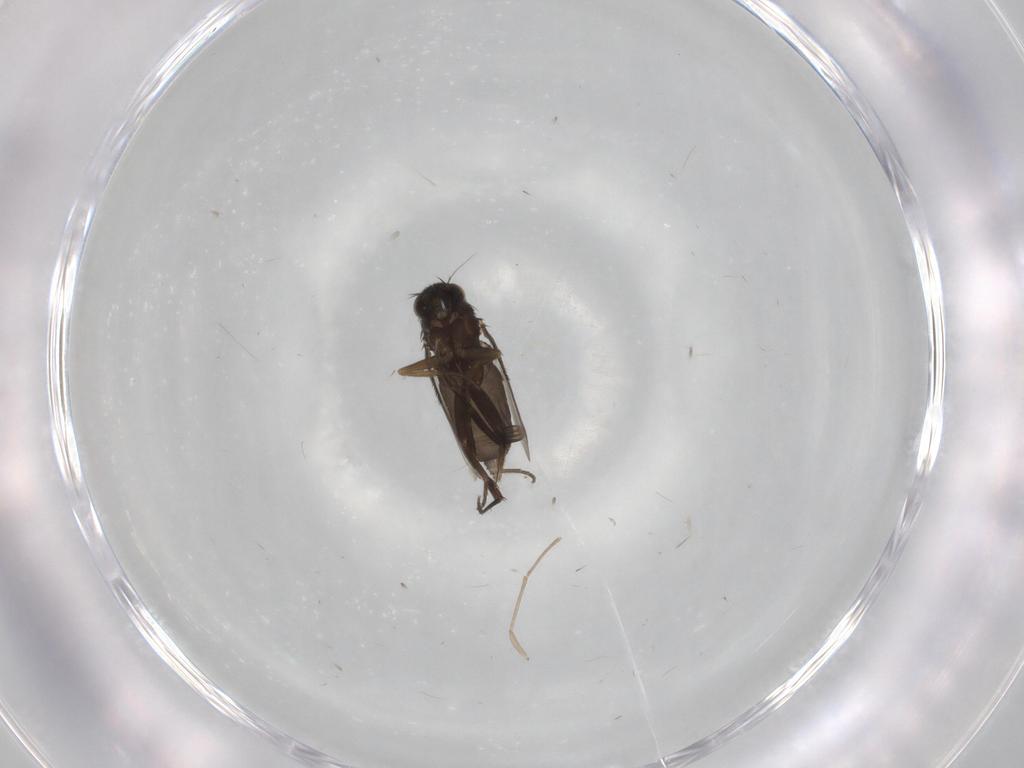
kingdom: Animalia
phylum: Arthropoda
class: Insecta
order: Diptera
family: Phoridae
